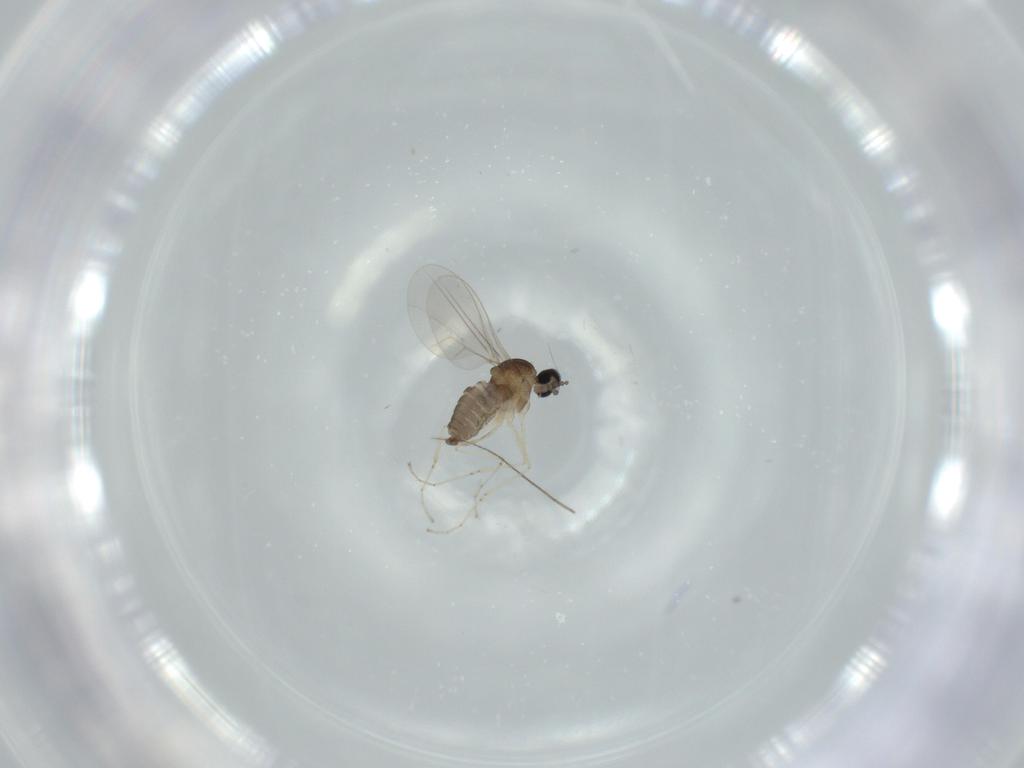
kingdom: Animalia
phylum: Arthropoda
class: Insecta
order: Diptera
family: Cecidomyiidae
